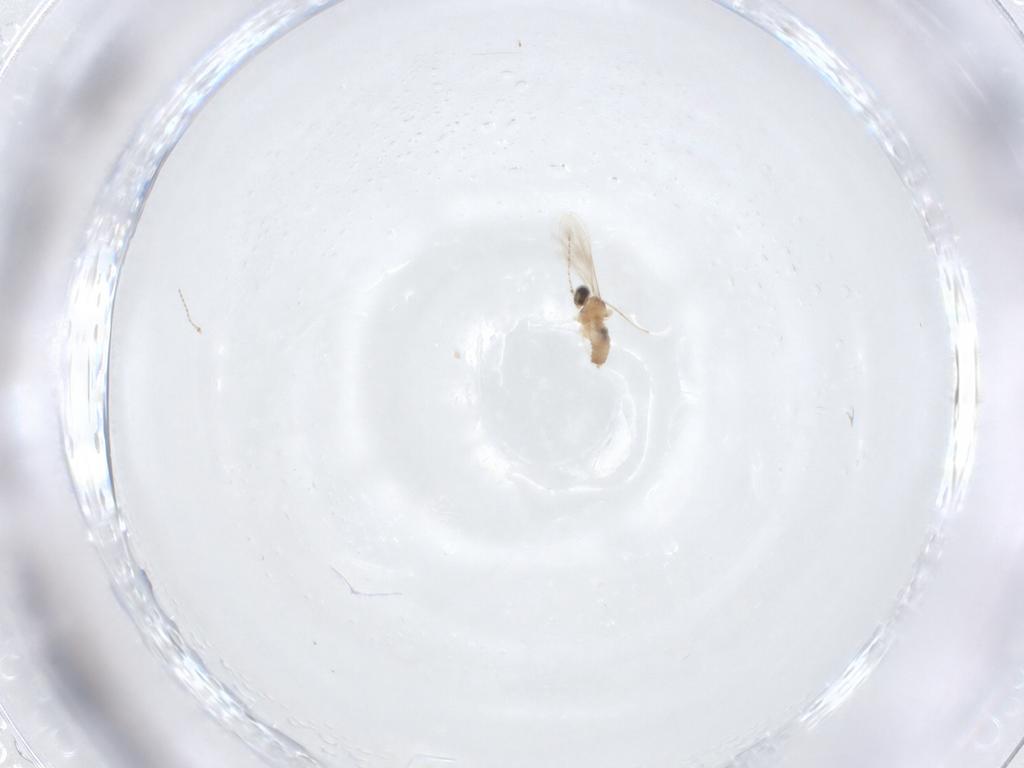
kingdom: Animalia
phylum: Arthropoda
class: Insecta
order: Diptera
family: Cecidomyiidae
